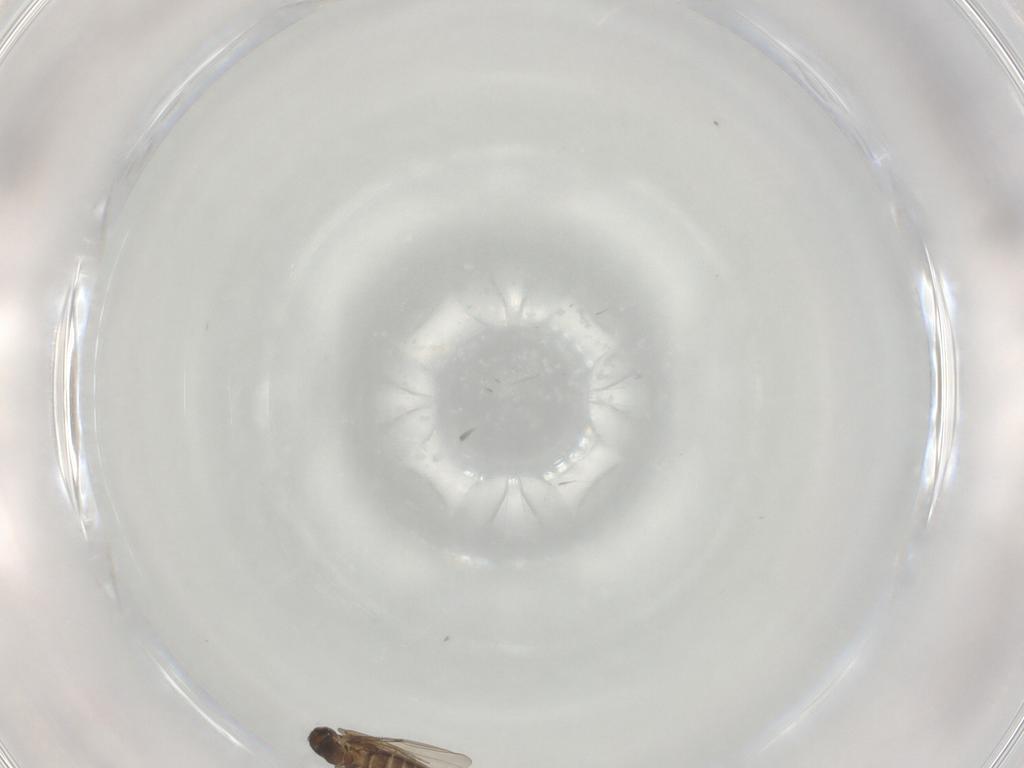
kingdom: Animalia
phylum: Arthropoda
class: Insecta
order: Diptera
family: Phoridae
